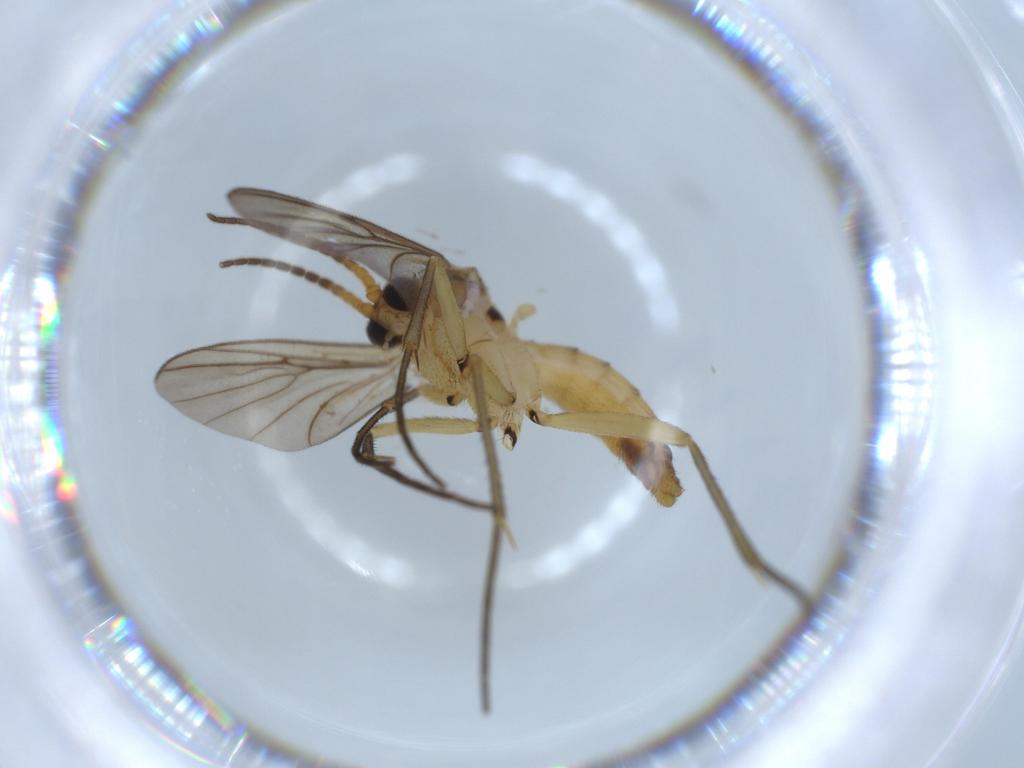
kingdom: Animalia
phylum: Arthropoda
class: Insecta
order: Diptera
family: Cecidomyiidae
